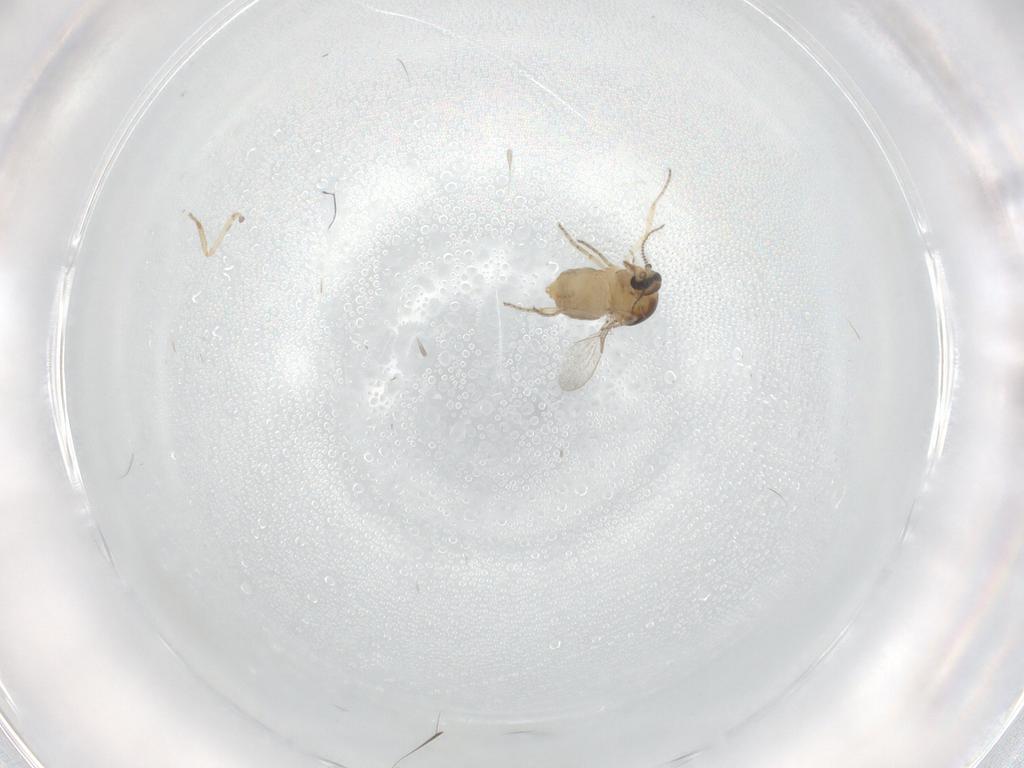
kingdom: Animalia
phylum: Arthropoda
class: Insecta
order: Diptera
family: Ceratopogonidae
